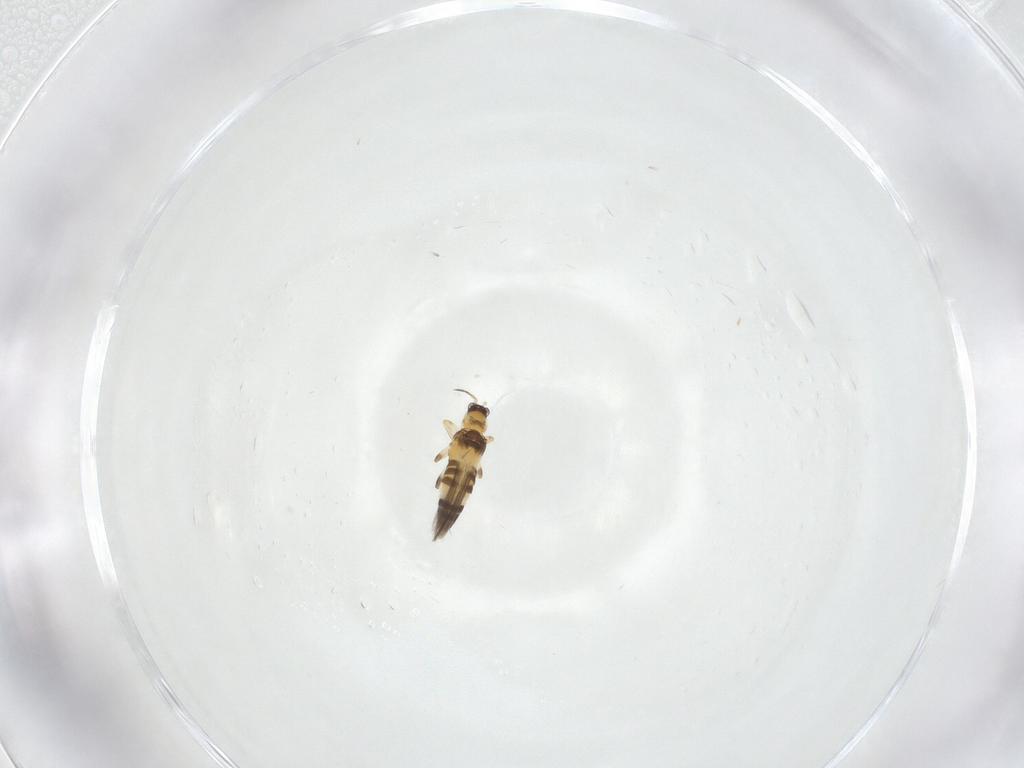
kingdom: Animalia
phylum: Arthropoda
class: Insecta
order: Thysanoptera
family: Thripidae
